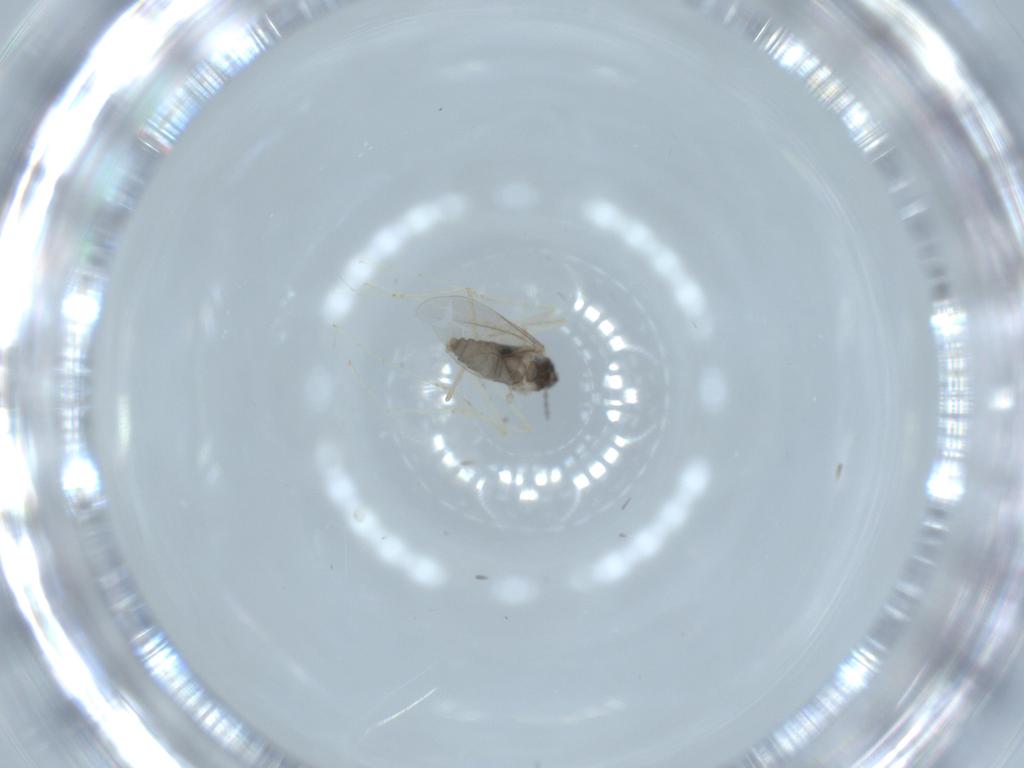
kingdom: Animalia
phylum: Arthropoda
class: Insecta
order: Diptera
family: Cecidomyiidae
